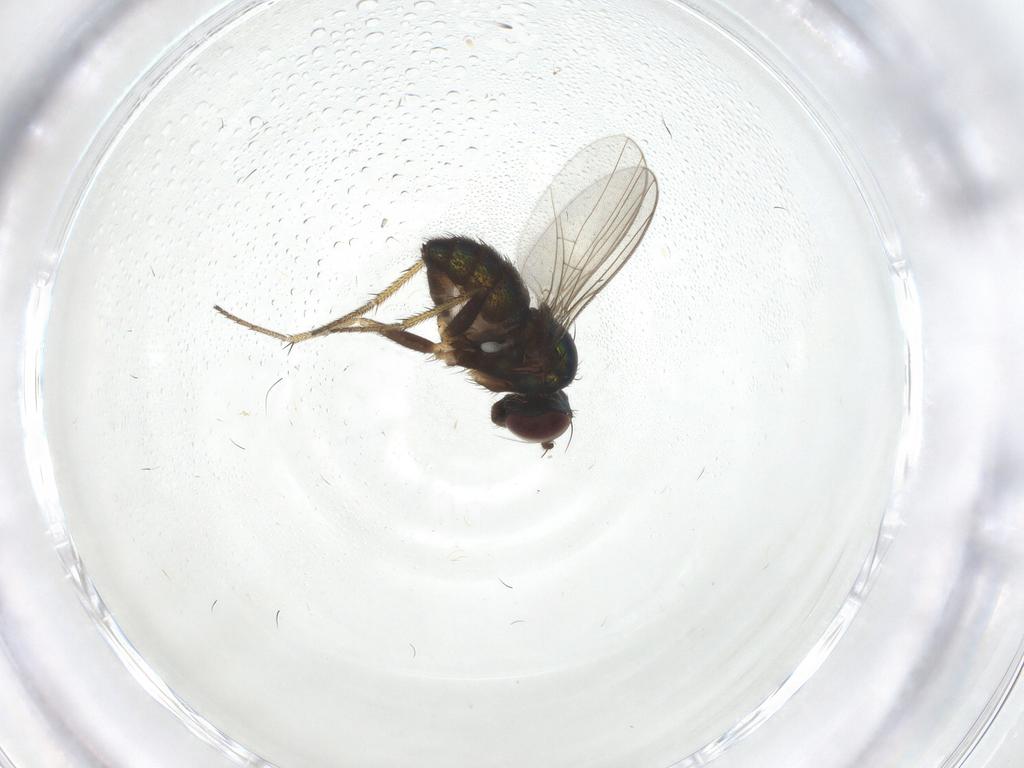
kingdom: Animalia
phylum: Arthropoda
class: Insecta
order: Diptera
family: Dolichopodidae
